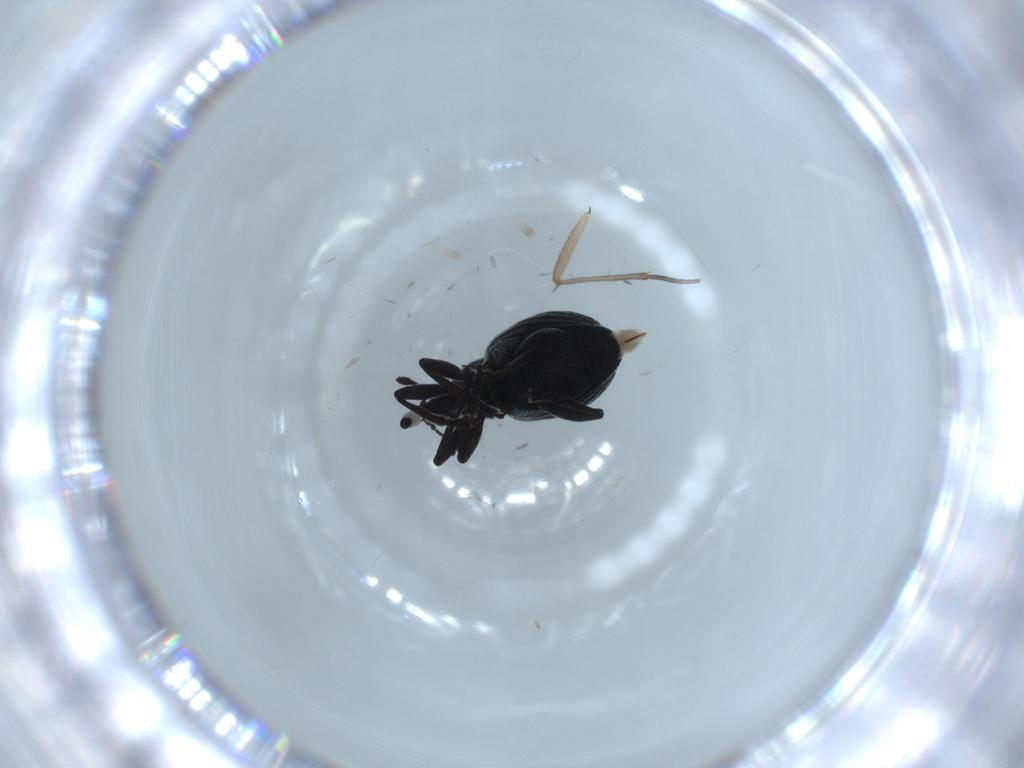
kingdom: Animalia
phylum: Arthropoda
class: Insecta
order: Coleoptera
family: Brentidae
